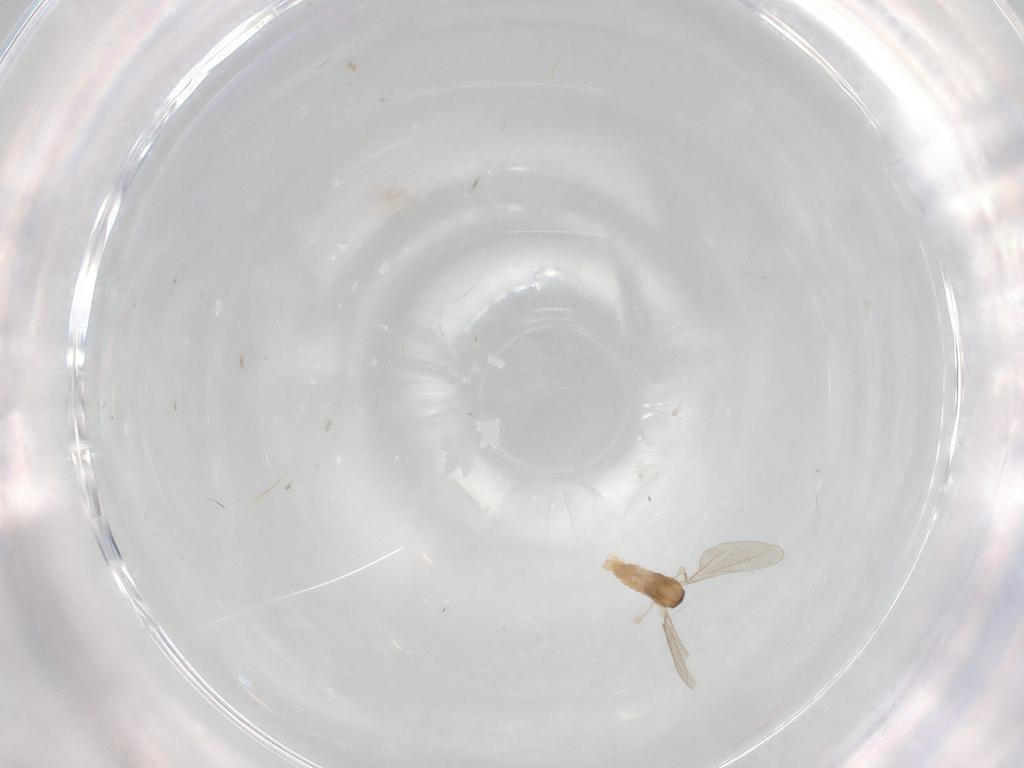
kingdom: Animalia
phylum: Arthropoda
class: Insecta
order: Diptera
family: Cecidomyiidae
